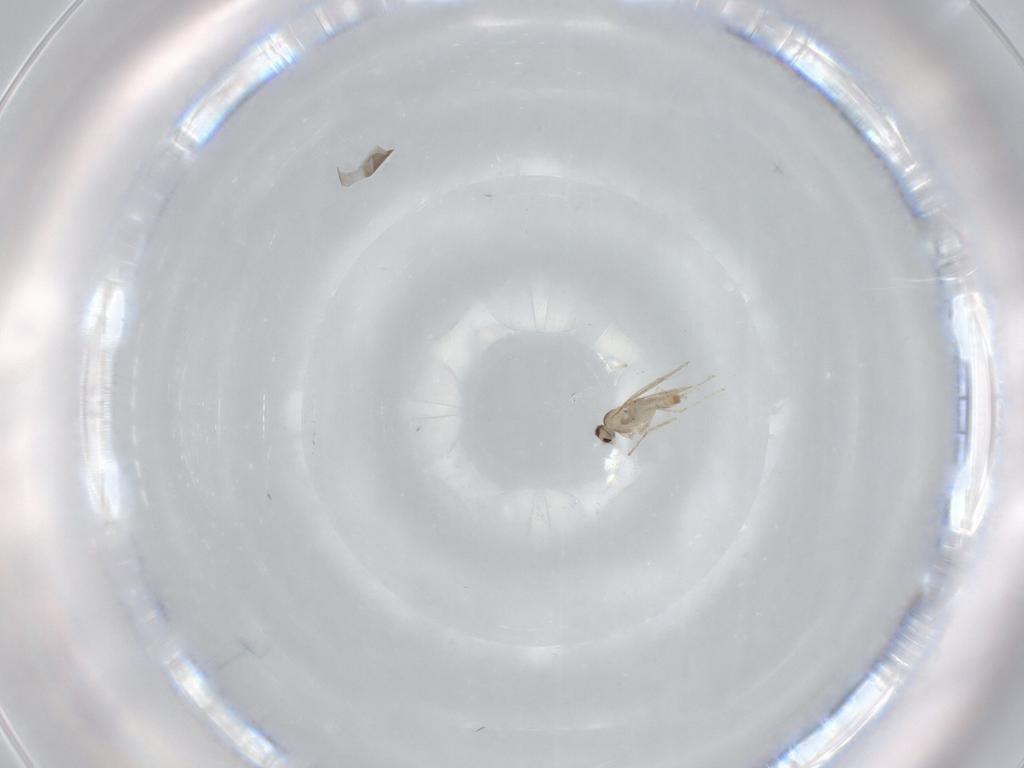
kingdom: Animalia
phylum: Arthropoda
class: Insecta
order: Diptera
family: Cecidomyiidae
